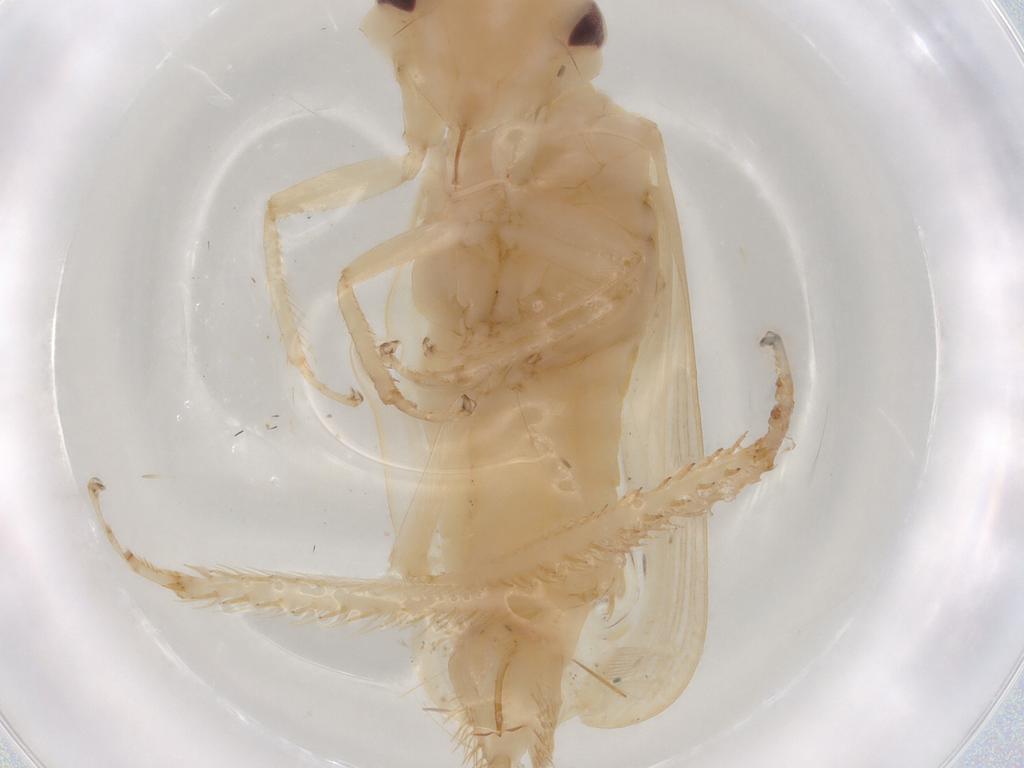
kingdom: Animalia
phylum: Arthropoda
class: Insecta
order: Hemiptera
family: Cicadellidae
